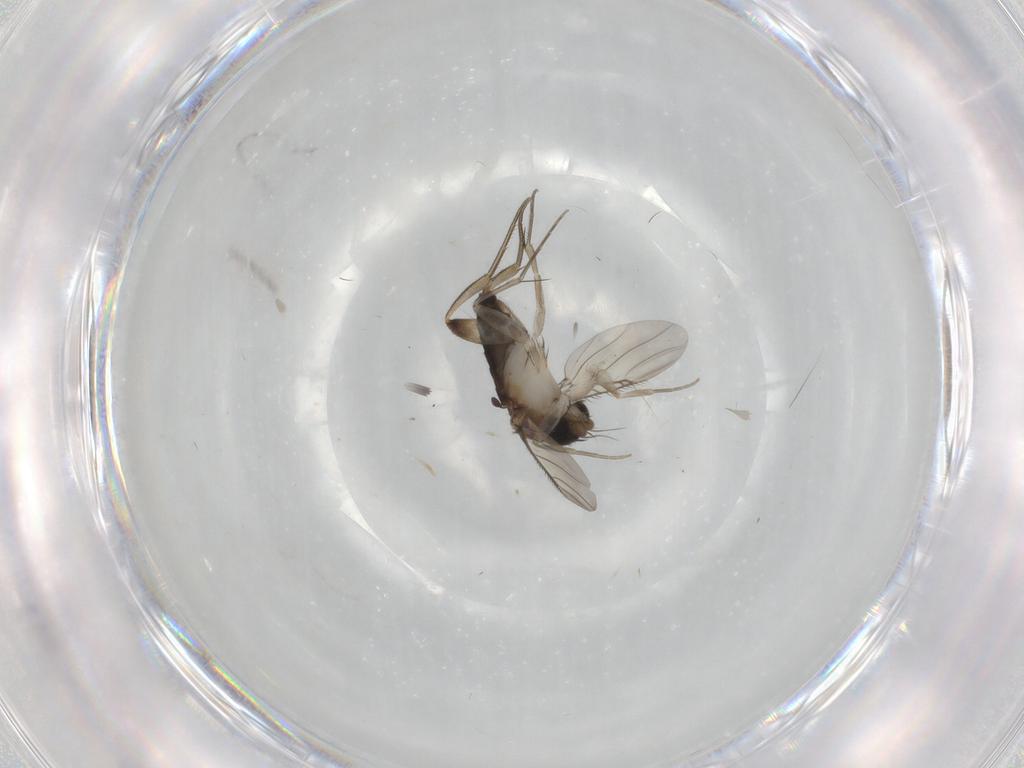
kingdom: Animalia
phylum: Arthropoda
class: Insecta
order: Diptera
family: Phoridae
